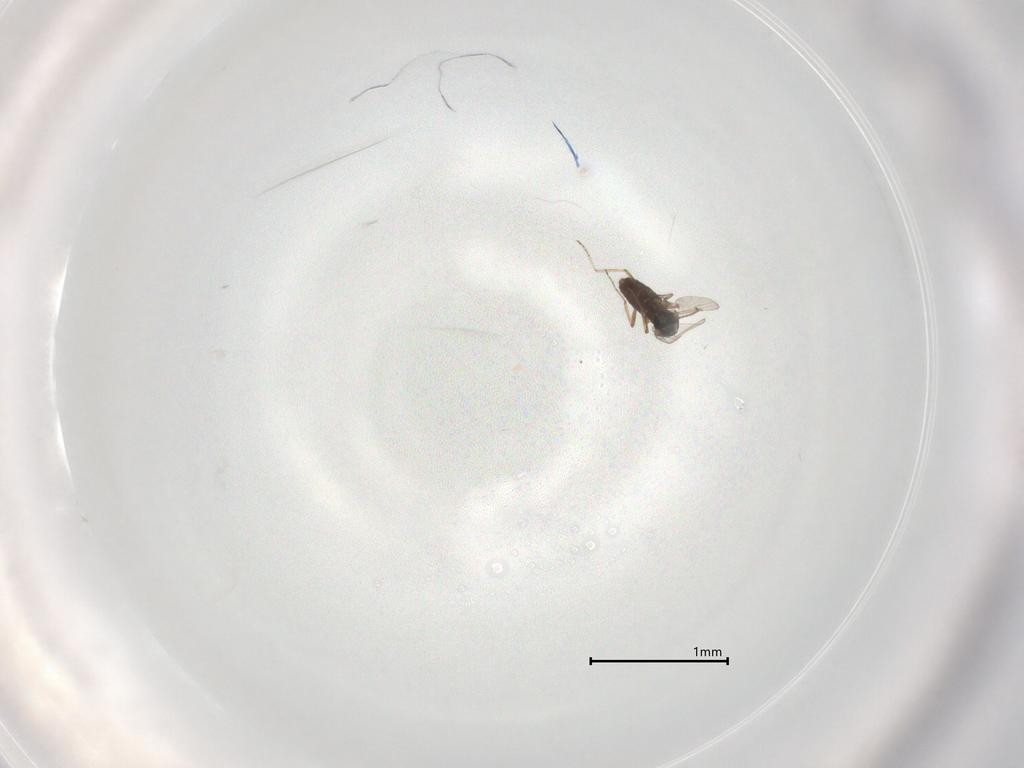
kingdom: Animalia
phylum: Arthropoda
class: Insecta
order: Diptera
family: Ceratopogonidae
